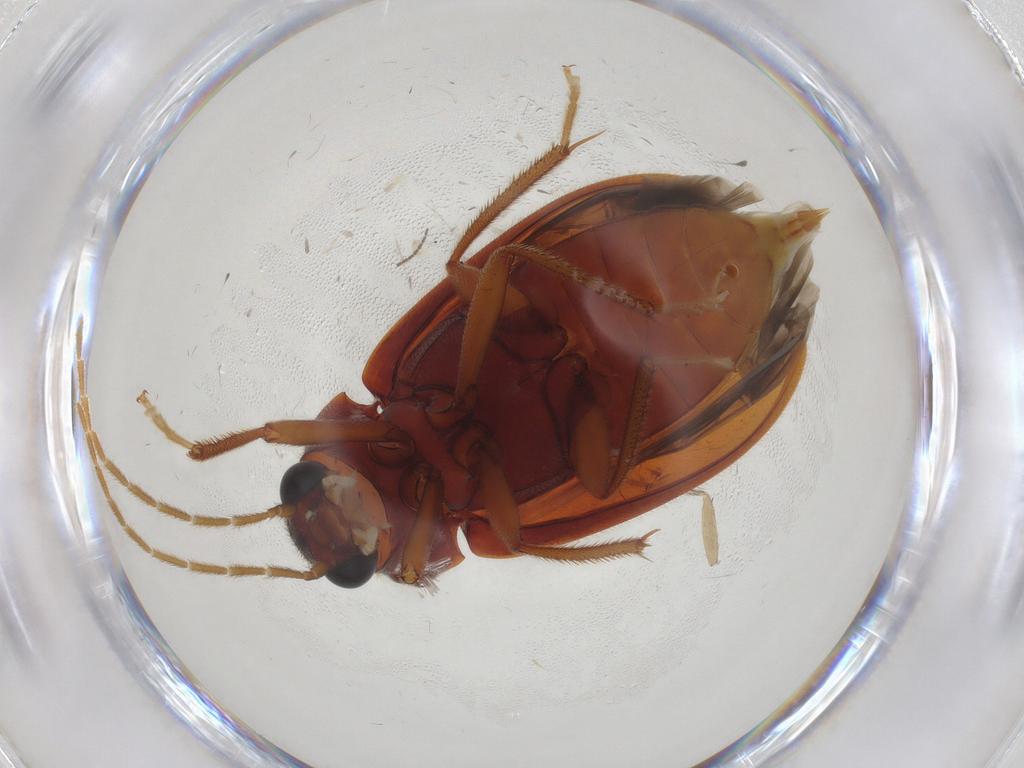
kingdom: Animalia
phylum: Arthropoda
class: Insecta
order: Coleoptera
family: Ptilodactylidae
